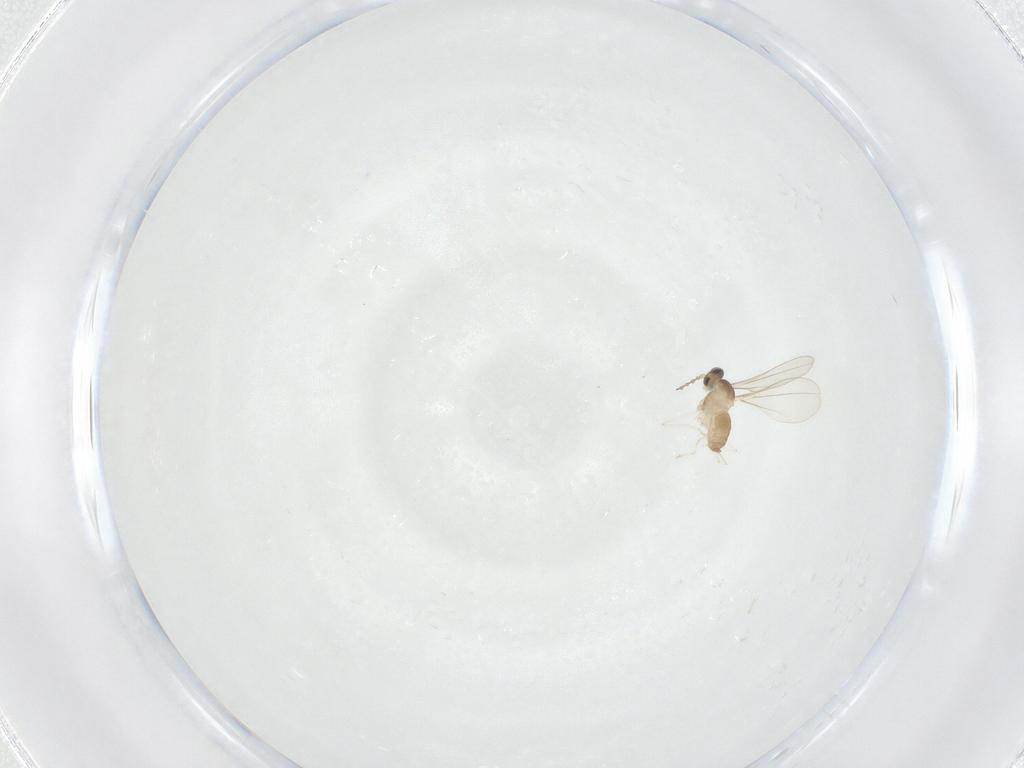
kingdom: Animalia
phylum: Arthropoda
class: Insecta
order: Diptera
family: Cecidomyiidae
